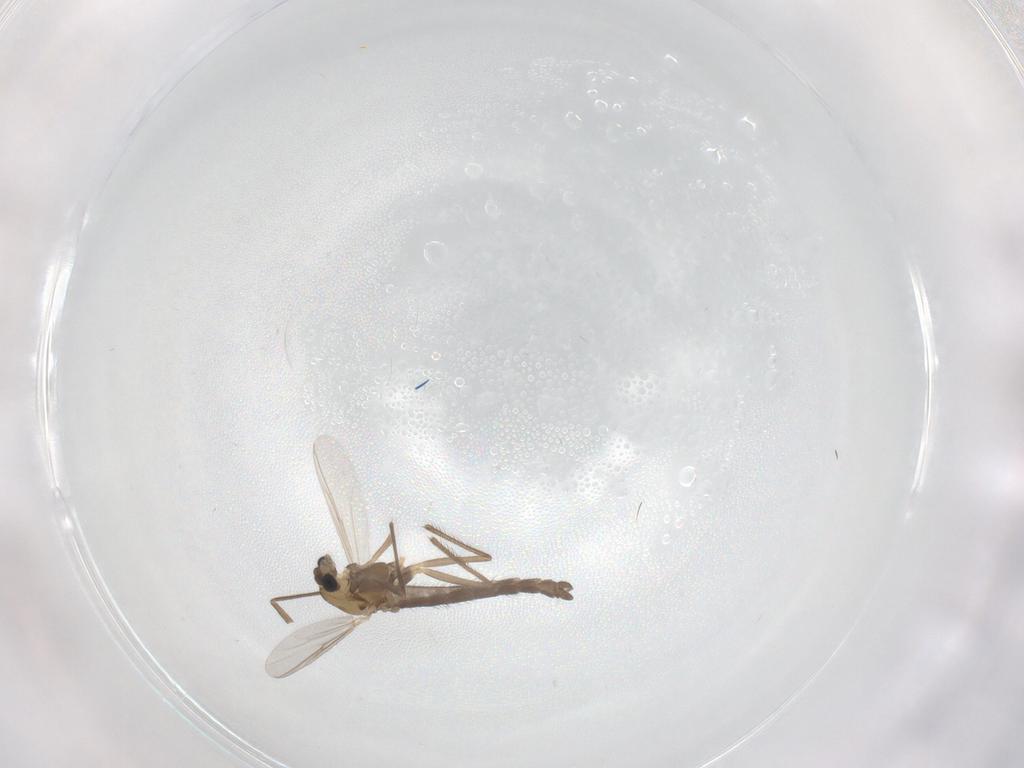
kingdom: Animalia
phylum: Arthropoda
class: Insecta
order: Diptera
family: Chironomidae
